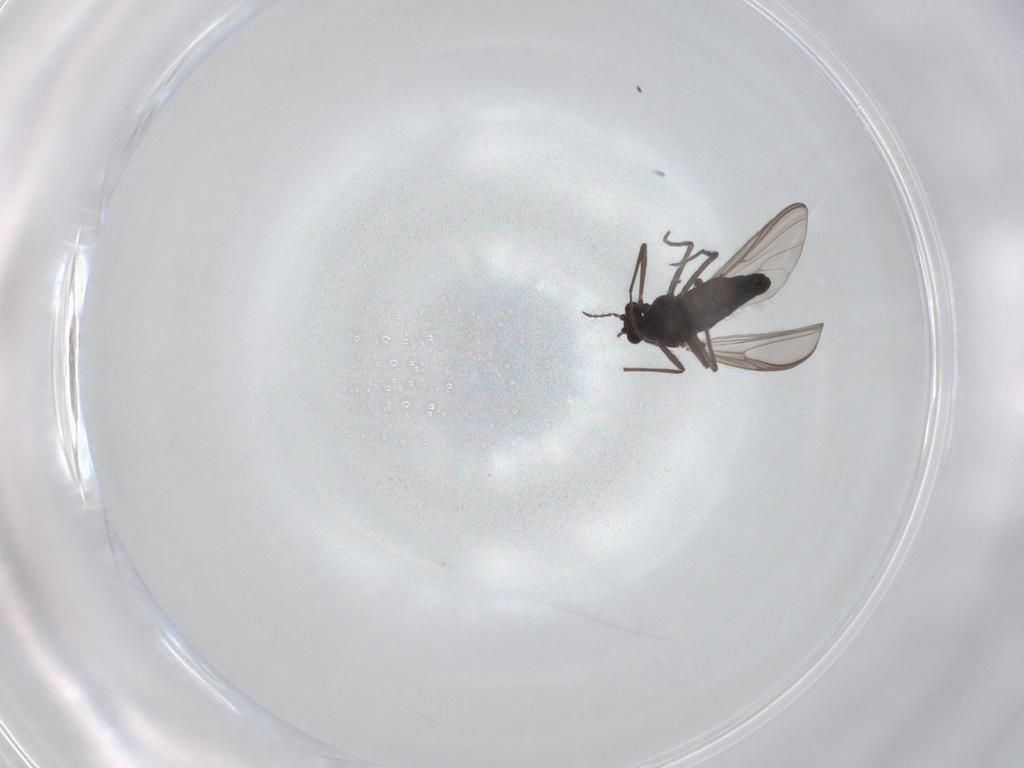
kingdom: Animalia
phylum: Arthropoda
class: Insecta
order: Diptera
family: Chironomidae
